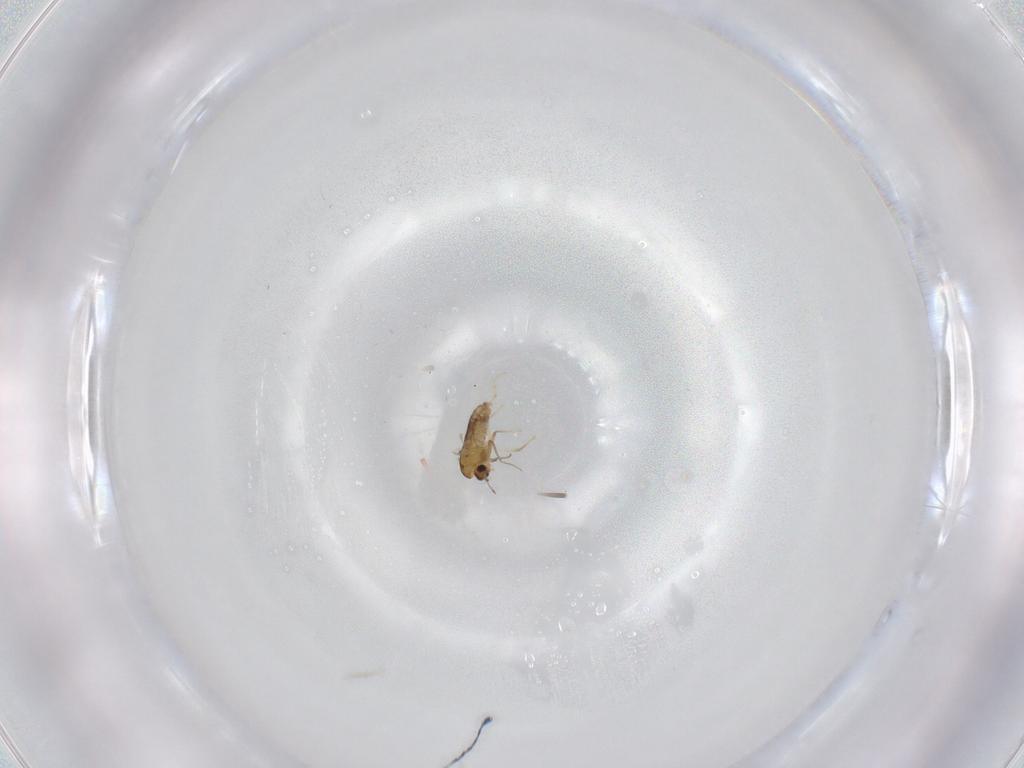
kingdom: Animalia
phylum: Arthropoda
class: Insecta
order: Diptera
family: Chironomidae
